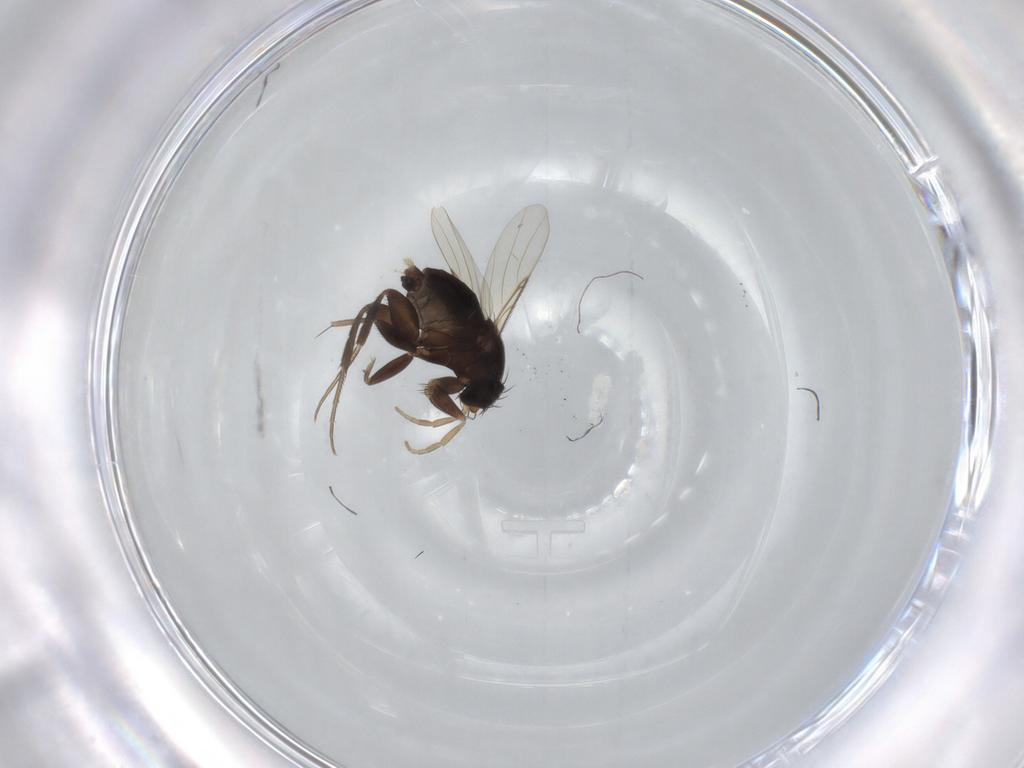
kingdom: Animalia
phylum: Arthropoda
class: Insecta
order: Diptera
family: Phoridae
